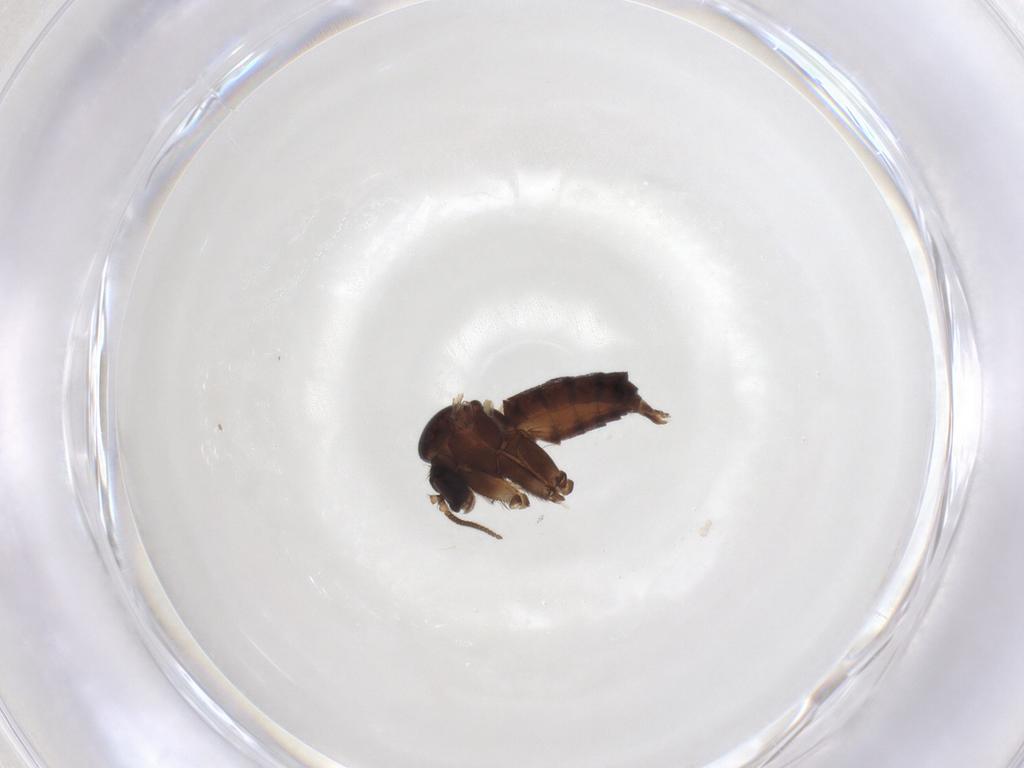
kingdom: Animalia
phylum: Arthropoda
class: Insecta
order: Diptera
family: Sciaridae
